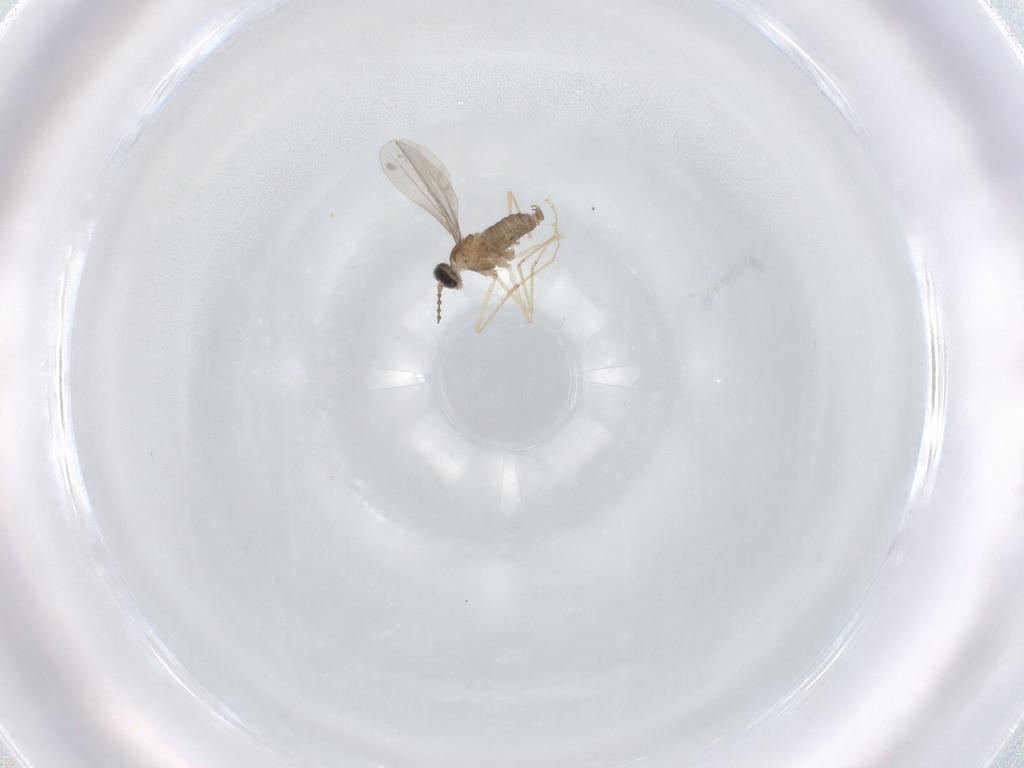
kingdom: Animalia
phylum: Arthropoda
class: Insecta
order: Diptera
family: Cecidomyiidae
